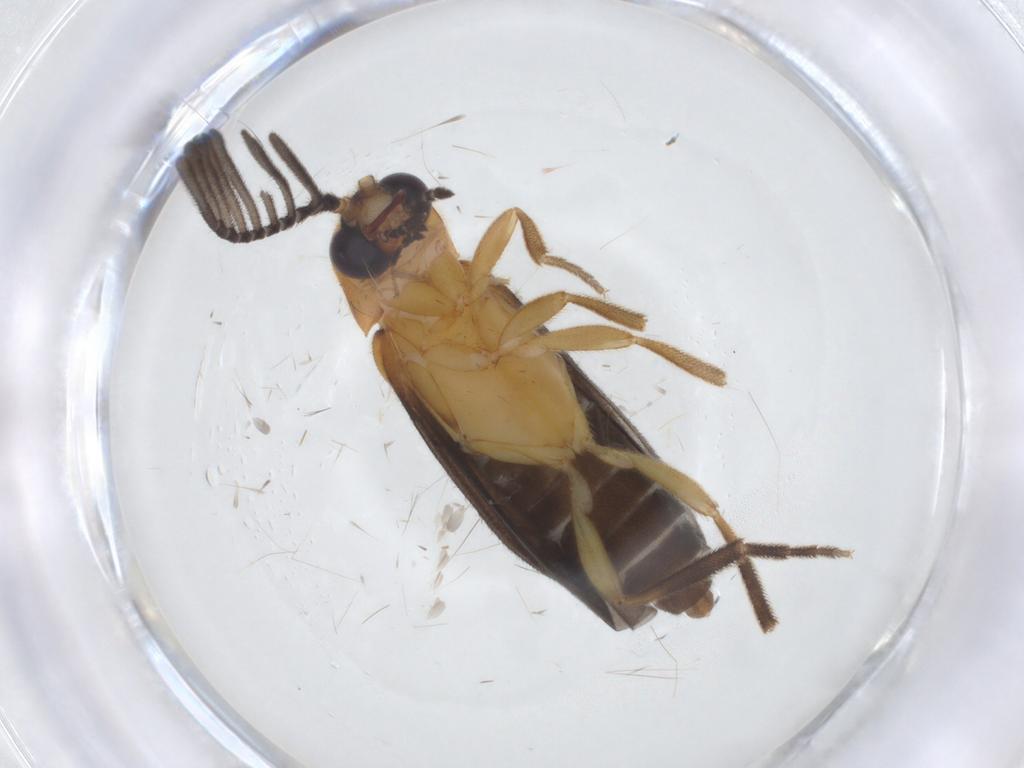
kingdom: Animalia
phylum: Arthropoda
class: Insecta
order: Coleoptera
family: Lampyridae
